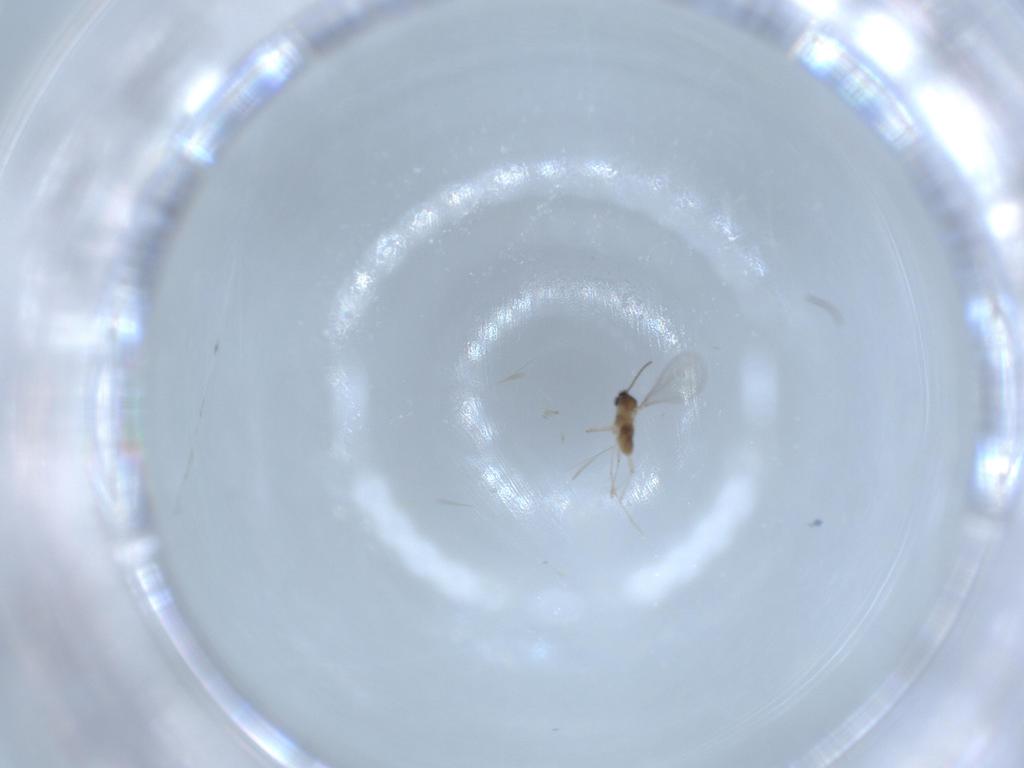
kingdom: Animalia
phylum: Arthropoda
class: Insecta
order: Diptera
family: Cecidomyiidae
